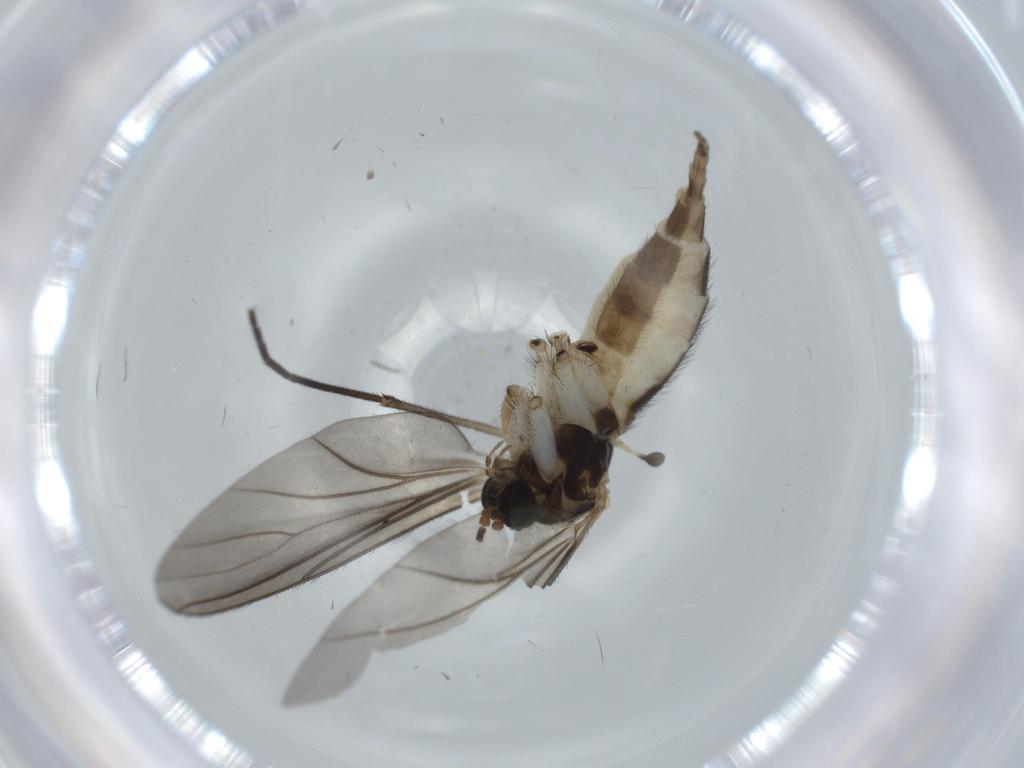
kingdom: Animalia
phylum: Arthropoda
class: Insecta
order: Diptera
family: Sciaridae
